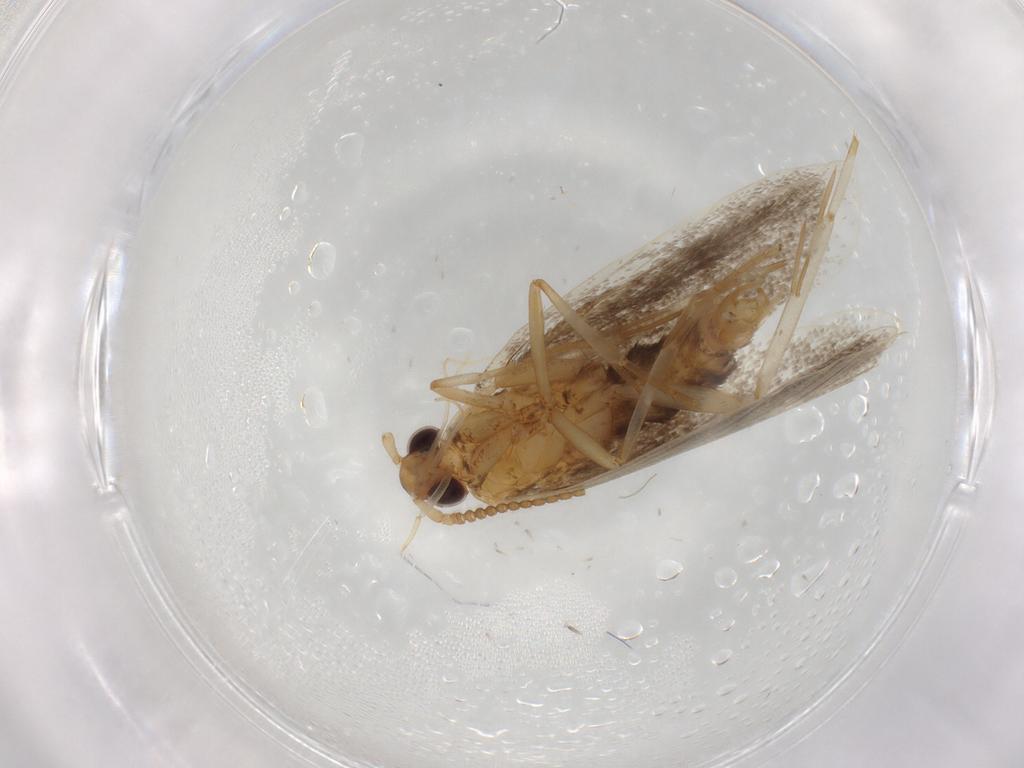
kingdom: Animalia
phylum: Arthropoda
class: Insecta
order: Lepidoptera
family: Lecithoceridae
